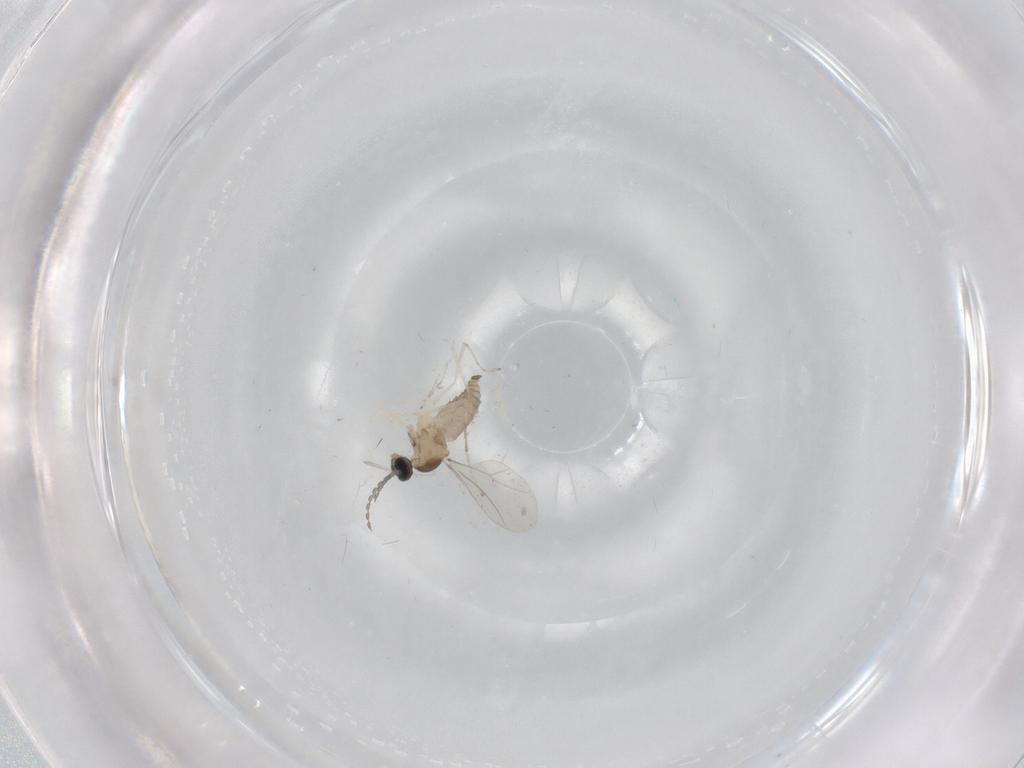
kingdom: Animalia
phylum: Arthropoda
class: Insecta
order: Diptera
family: Cecidomyiidae
